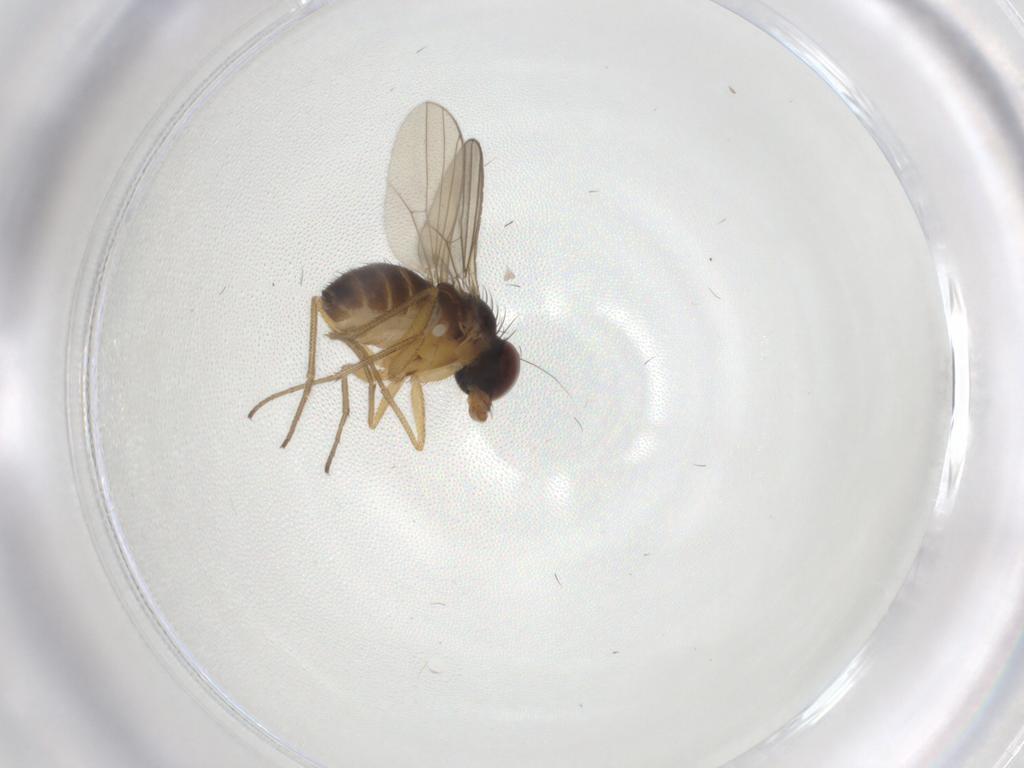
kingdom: Animalia
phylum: Arthropoda
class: Insecta
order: Diptera
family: Dolichopodidae
